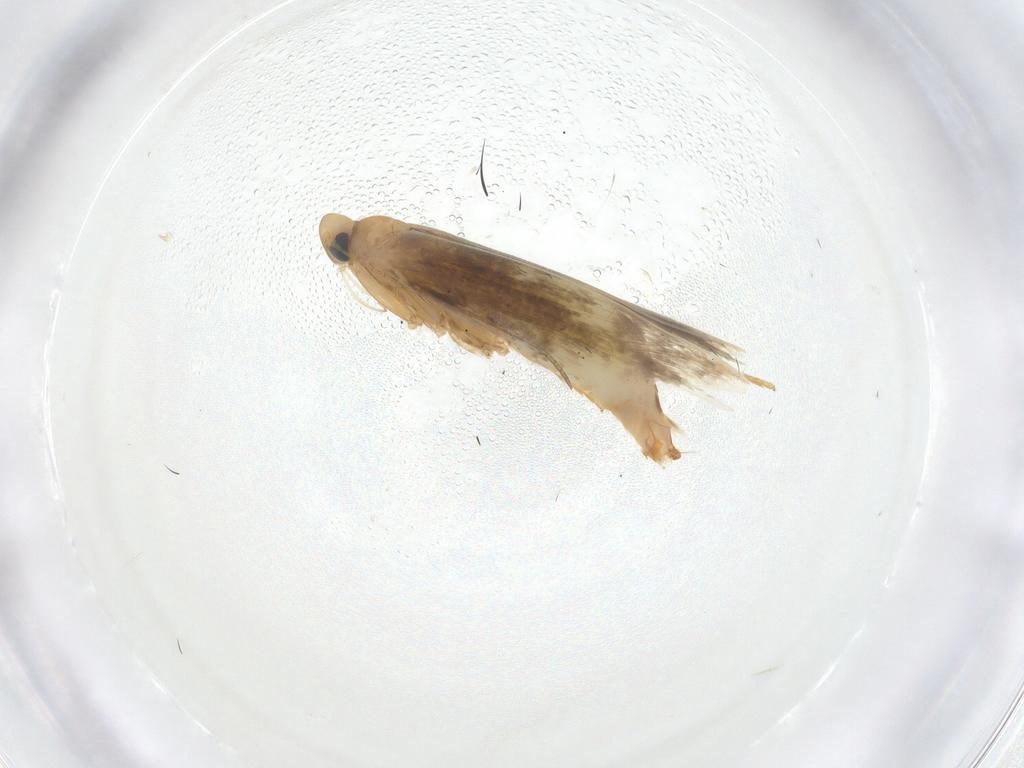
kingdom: Animalia
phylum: Arthropoda
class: Insecta
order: Lepidoptera
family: Tischeriidae
